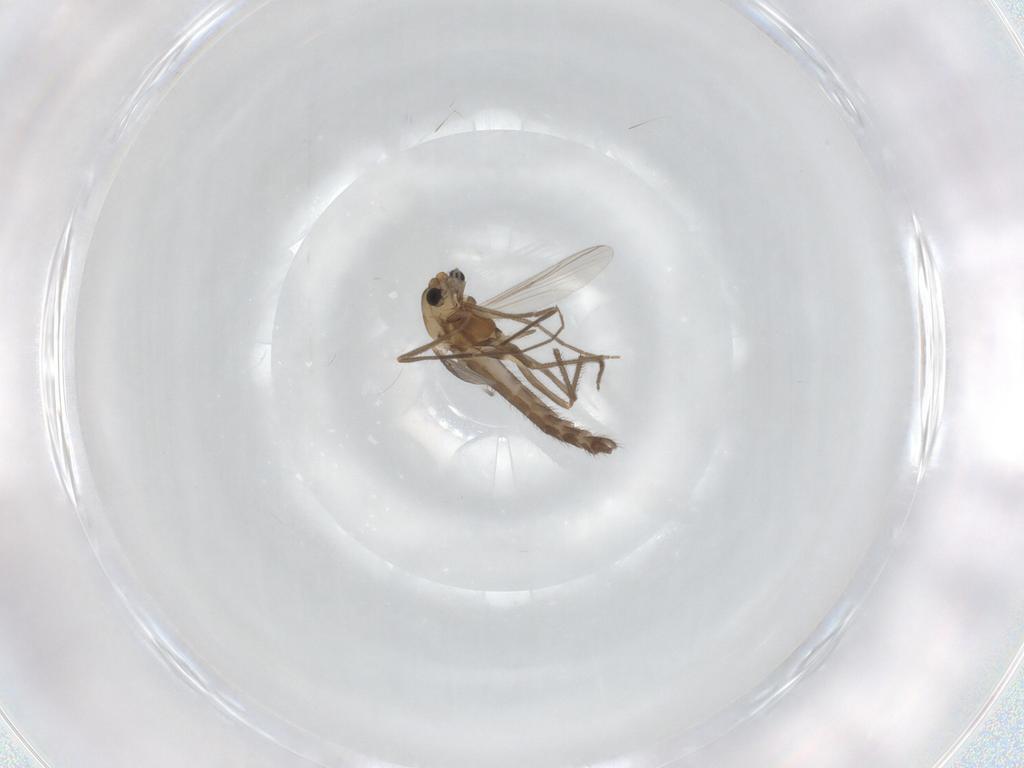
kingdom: Animalia
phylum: Arthropoda
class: Insecta
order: Diptera
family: Chironomidae
